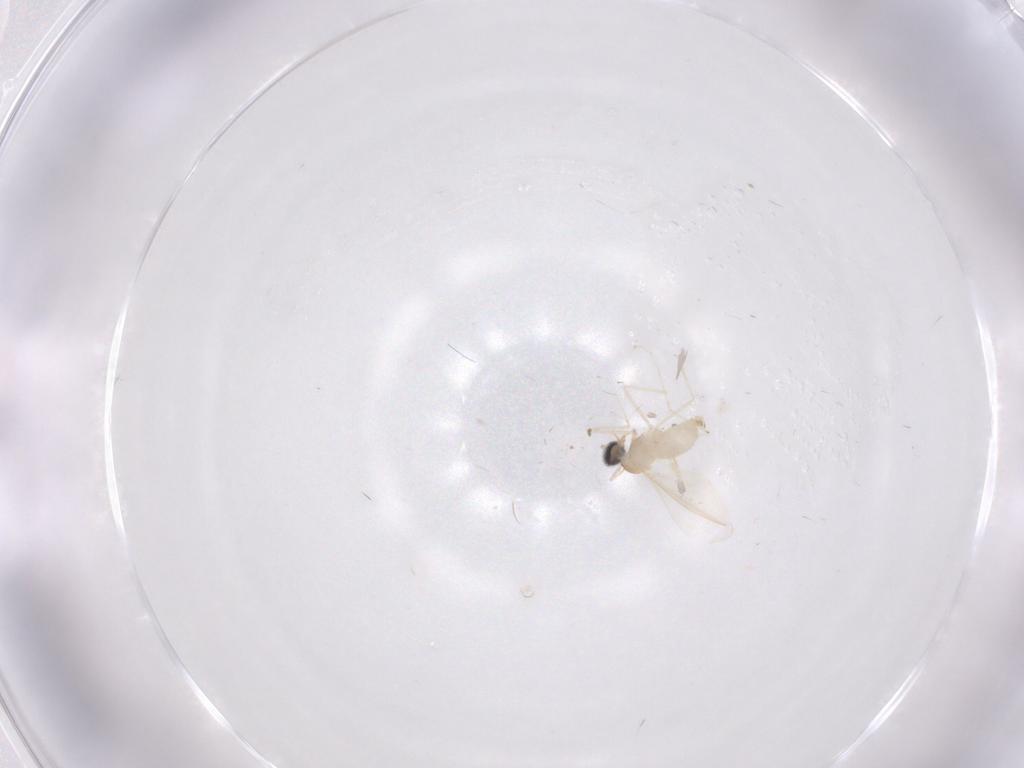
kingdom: Animalia
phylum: Arthropoda
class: Insecta
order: Diptera
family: Cecidomyiidae
